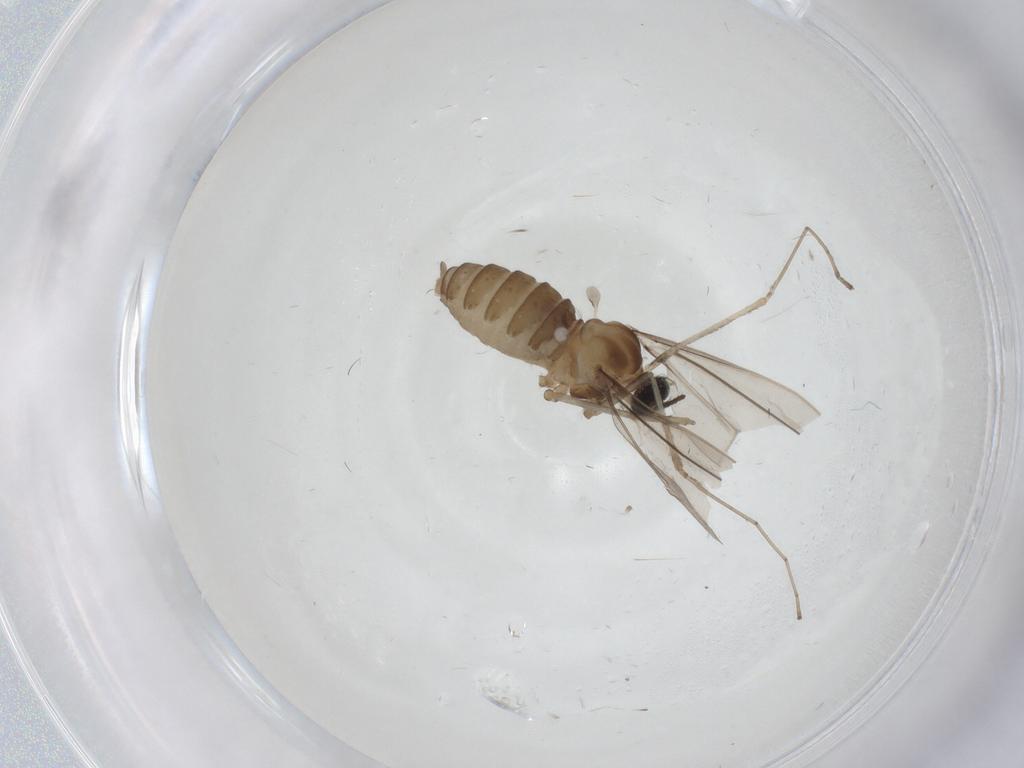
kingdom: Animalia
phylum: Arthropoda
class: Insecta
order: Diptera
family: Cecidomyiidae
